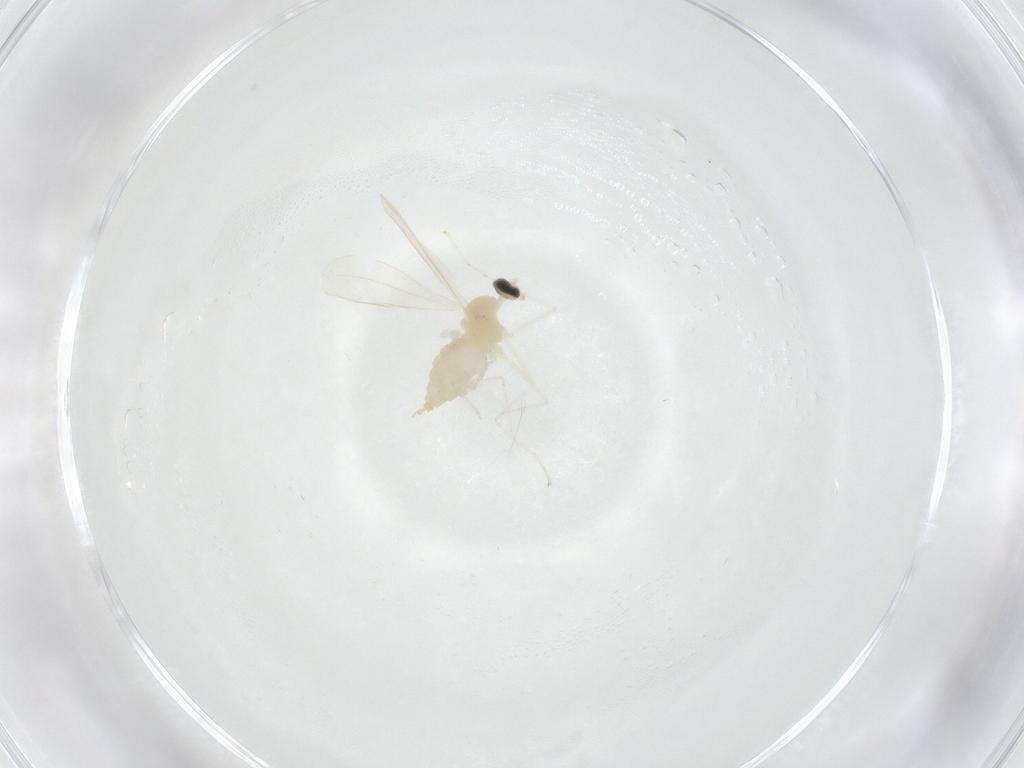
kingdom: Animalia
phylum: Arthropoda
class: Insecta
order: Diptera
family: Cecidomyiidae
